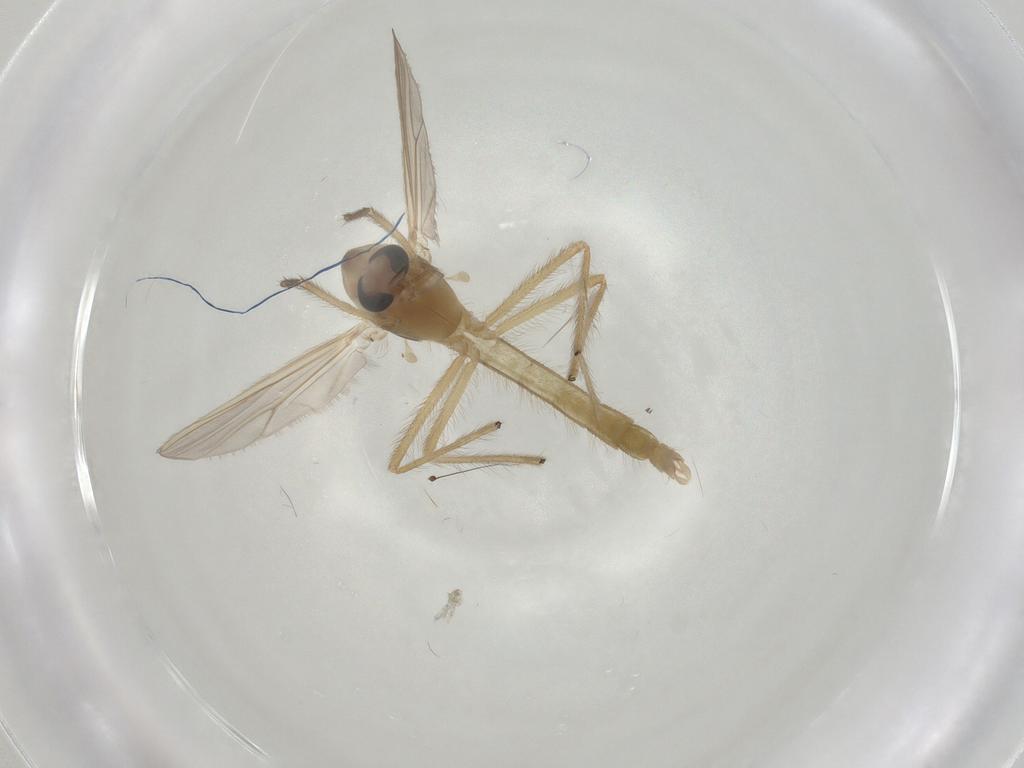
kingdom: Animalia
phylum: Arthropoda
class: Insecta
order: Diptera
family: Chironomidae
